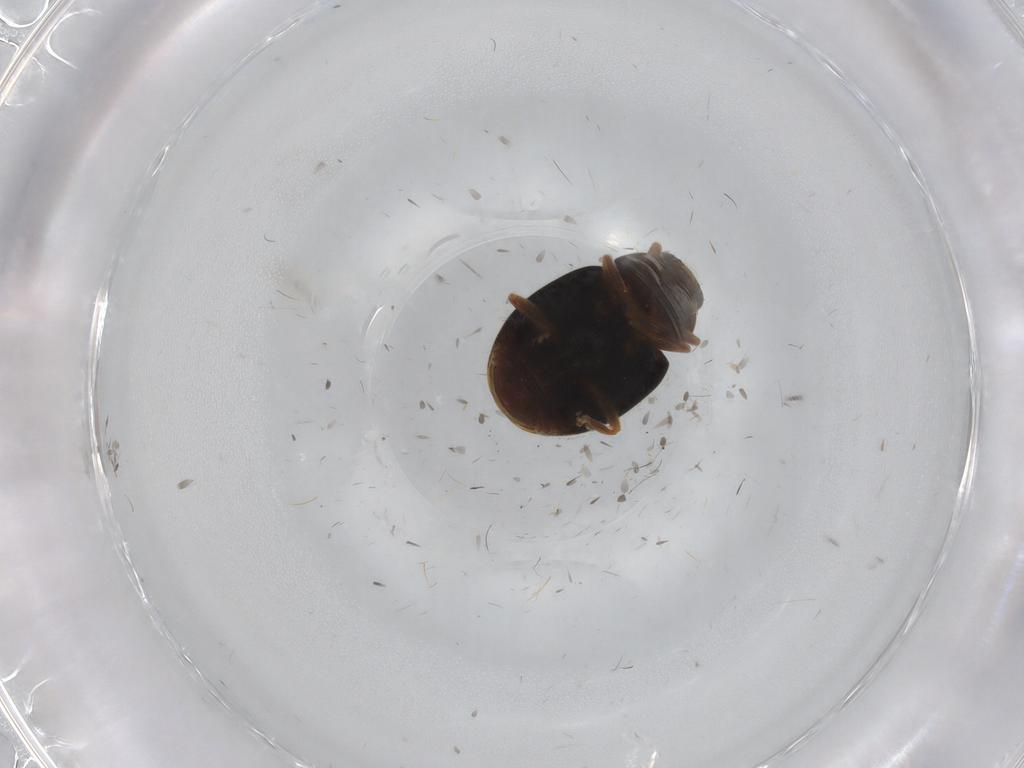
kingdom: Animalia
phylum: Arthropoda
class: Insecta
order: Coleoptera
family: Coccinellidae
